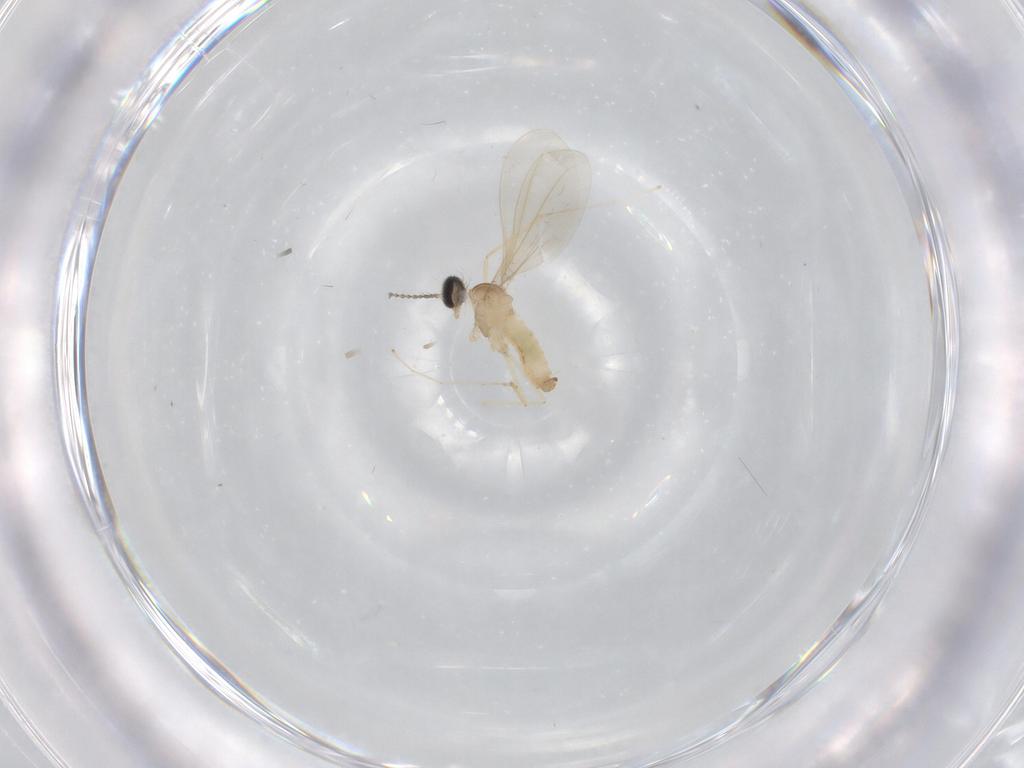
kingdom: Animalia
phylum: Arthropoda
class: Insecta
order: Diptera
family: Cecidomyiidae
